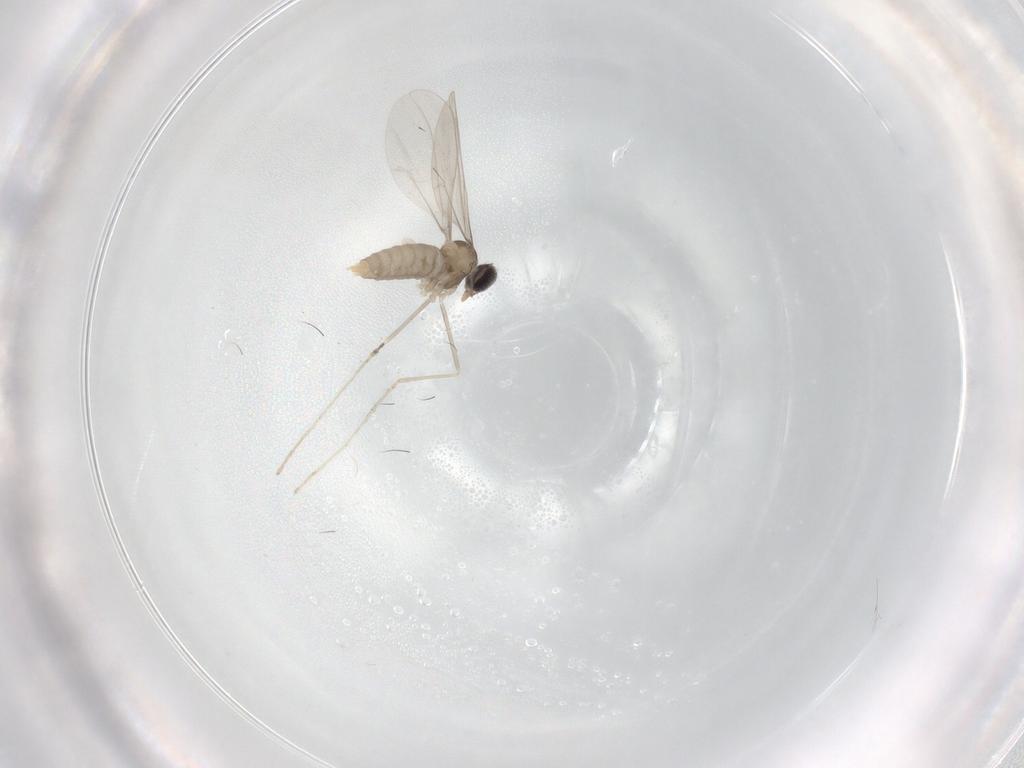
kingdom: Animalia
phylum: Arthropoda
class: Insecta
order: Diptera
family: Cecidomyiidae
